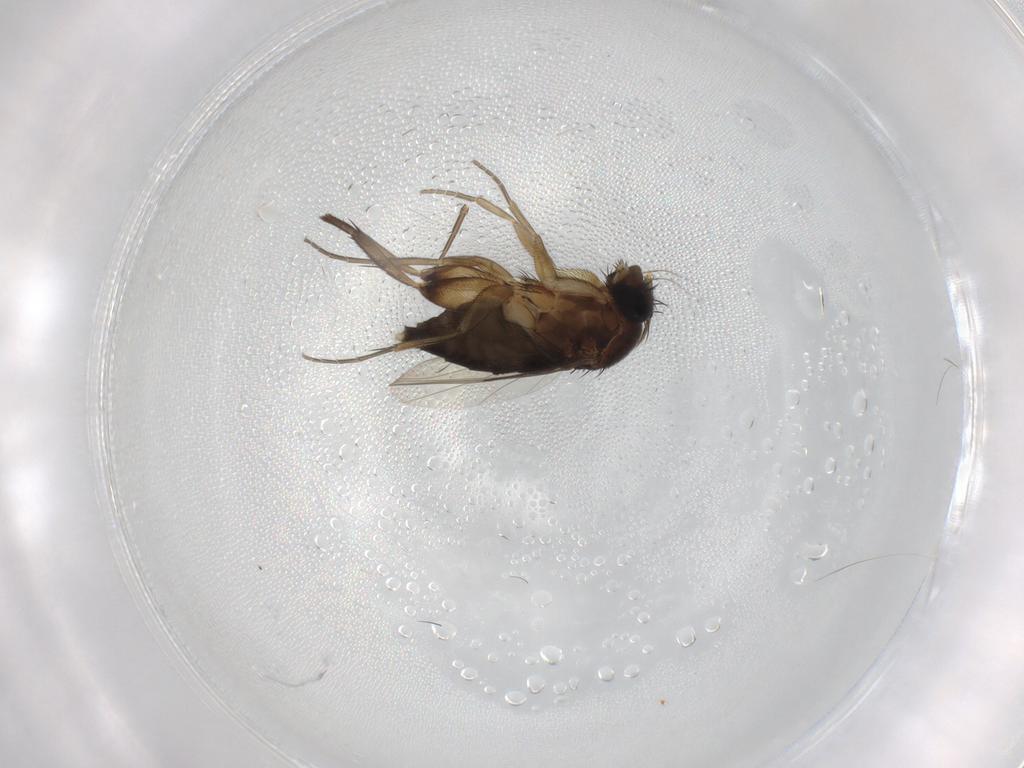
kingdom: Animalia
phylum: Arthropoda
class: Insecta
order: Diptera
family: Phoridae
